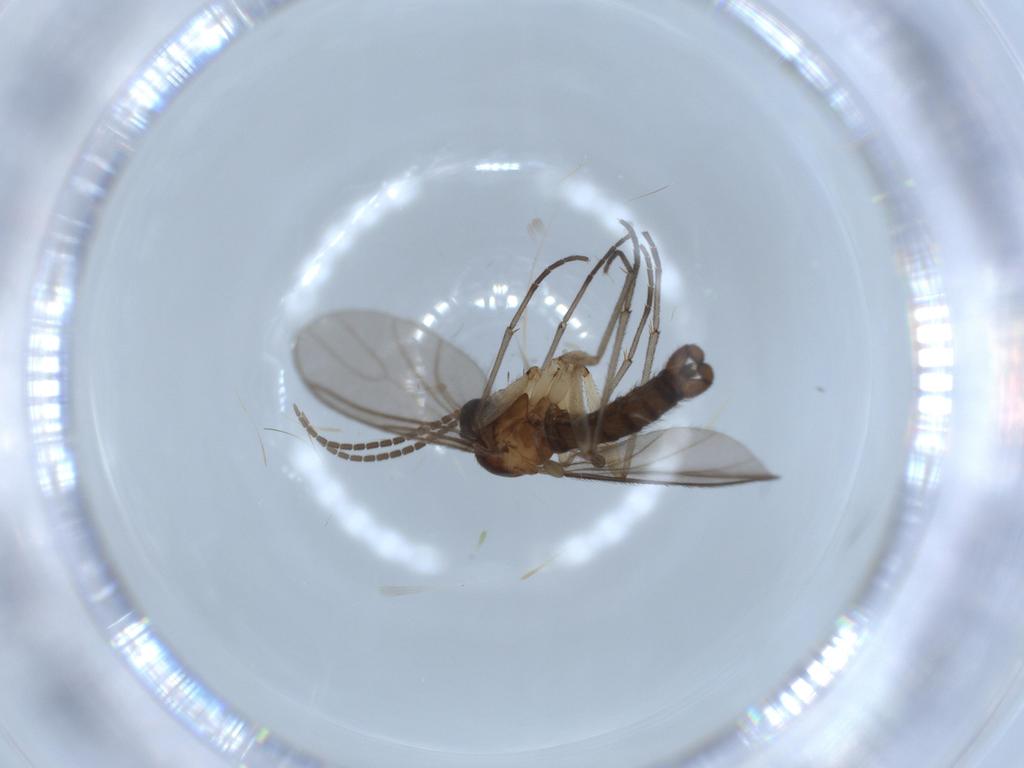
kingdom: Animalia
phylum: Arthropoda
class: Insecta
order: Diptera
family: Sciaridae
